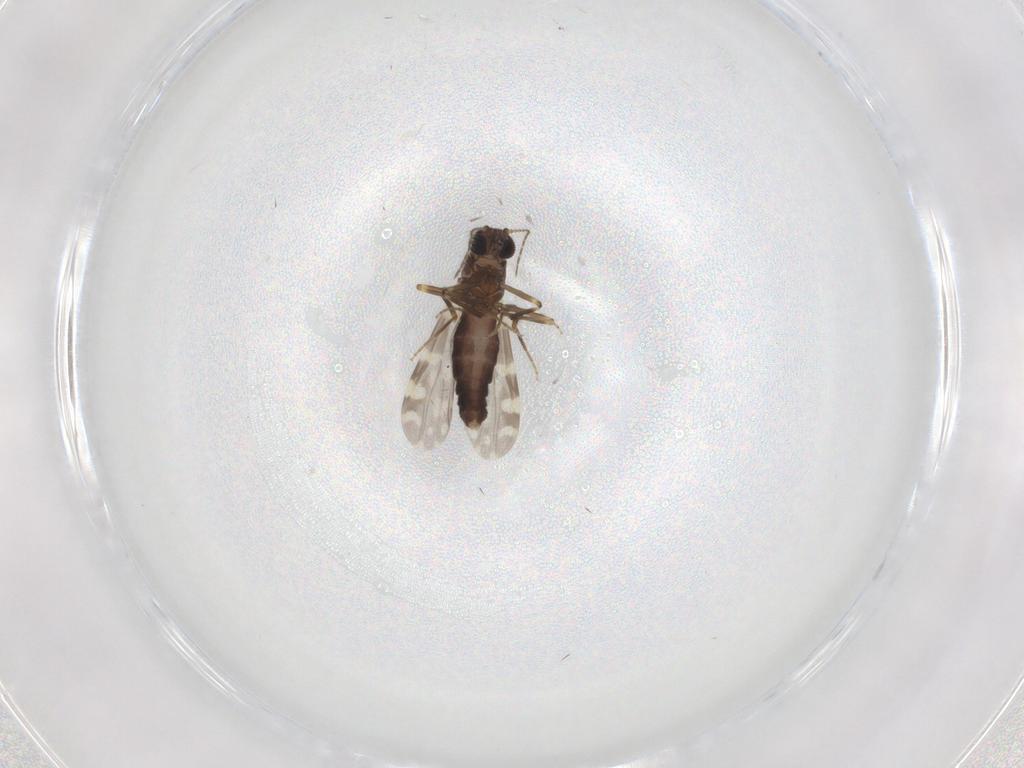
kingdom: Animalia
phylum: Arthropoda
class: Insecta
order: Diptera
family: Ceratopogonidae
